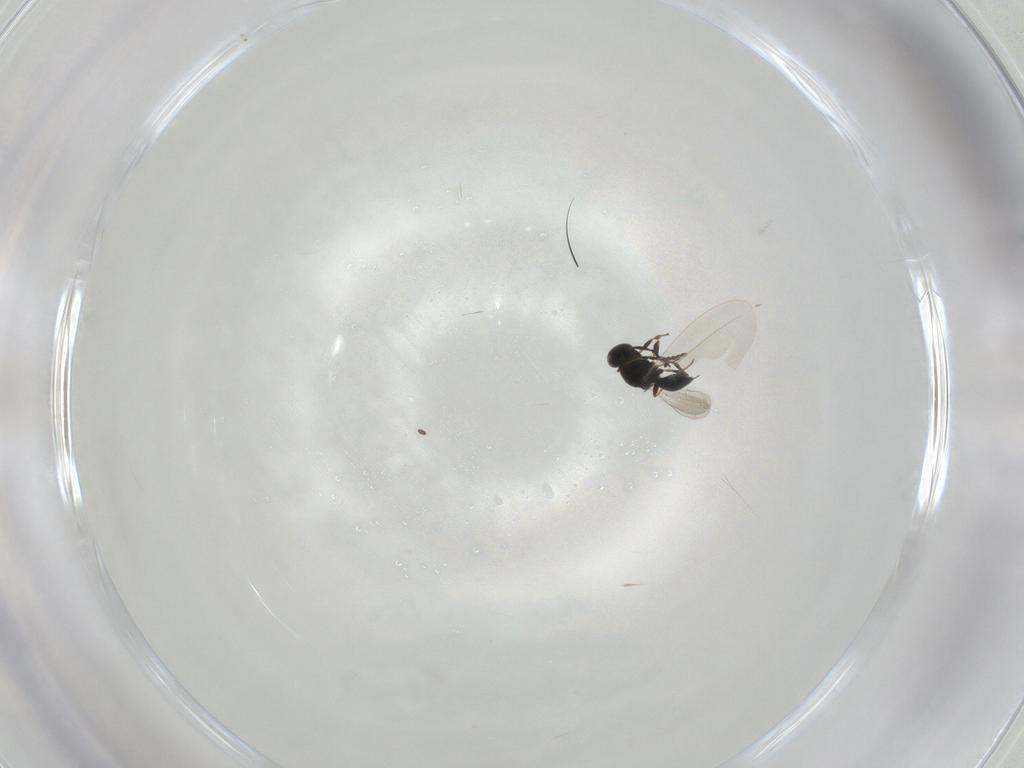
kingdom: Animalia
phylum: Arthropoda
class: Insecta
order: Hymenoptera
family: Platygastridae
